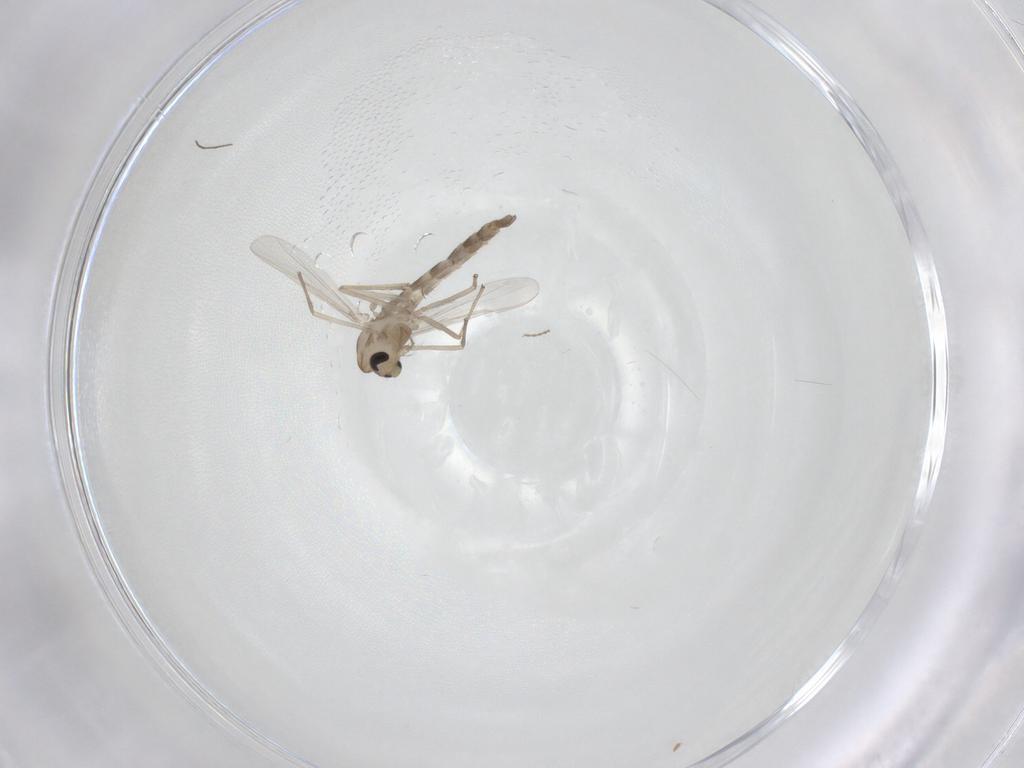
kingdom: Animalia
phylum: Arthropoda
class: Insecta
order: Diptera
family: Chironomidae
